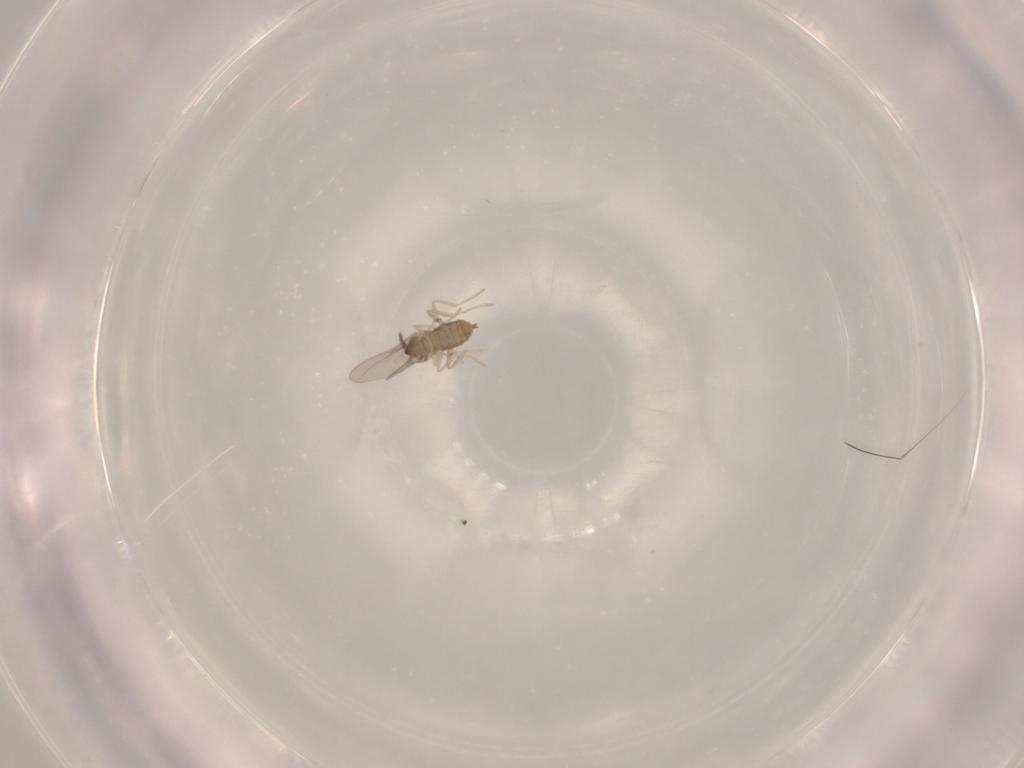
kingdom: Animalia
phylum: Arthropoda
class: Insecta
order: Diptera
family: Cecidomyiidae
